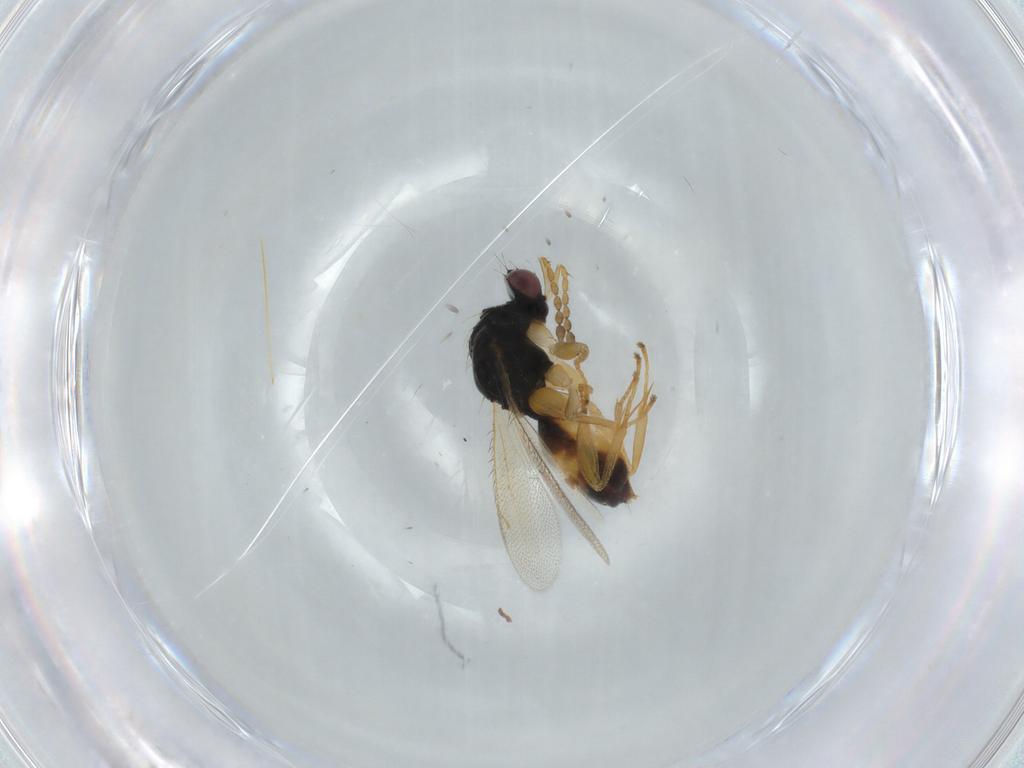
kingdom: Animalia
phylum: Arthropoda
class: Insecta
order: Hymenoptera
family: Eulophidae
